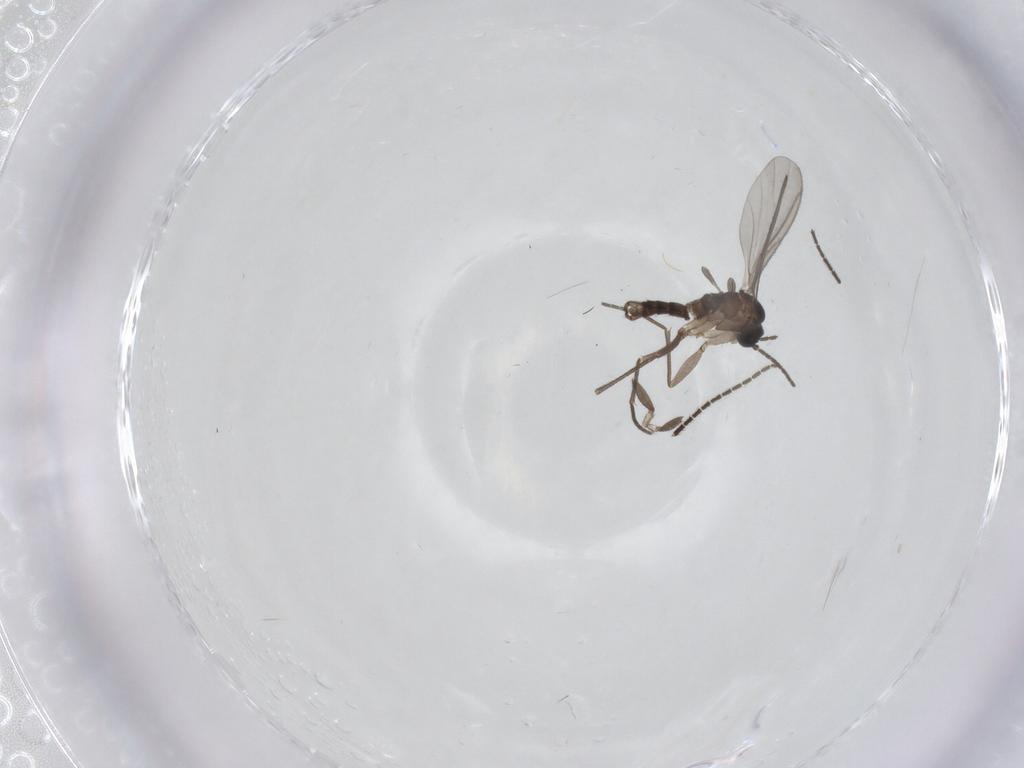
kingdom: Animalia
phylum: Arthropoda
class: Insecta
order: Diptera
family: Sciaridae
